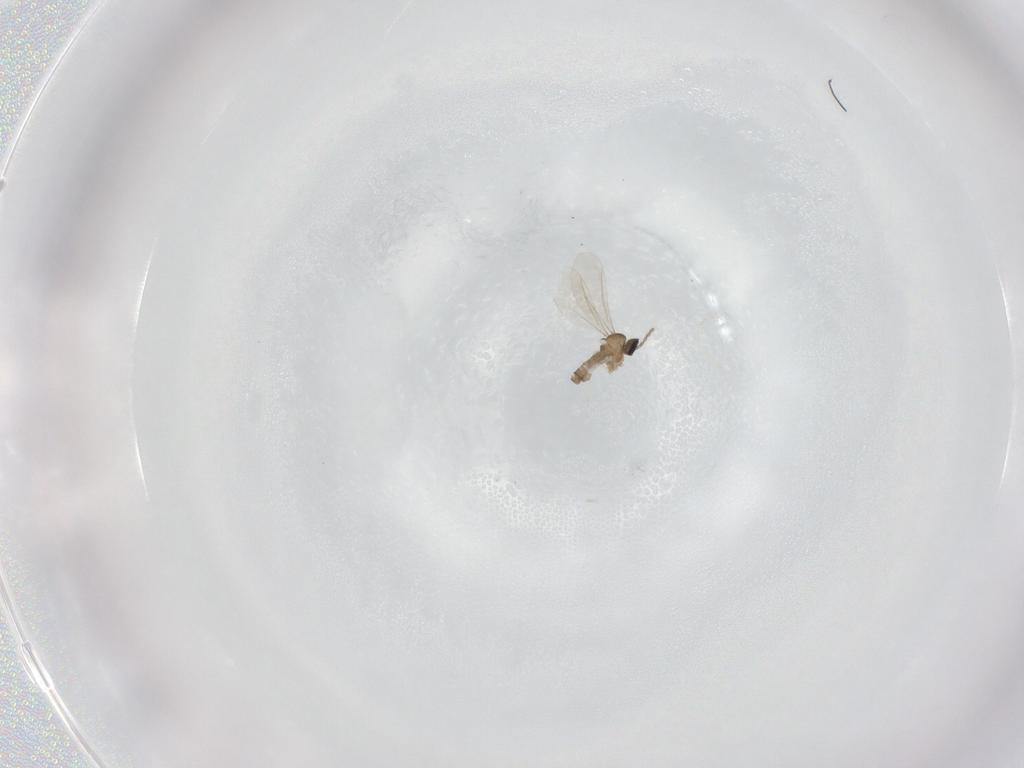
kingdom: Animalia
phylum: Arthropoda
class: Insecta
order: Diptera
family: Cecidomyiidae
